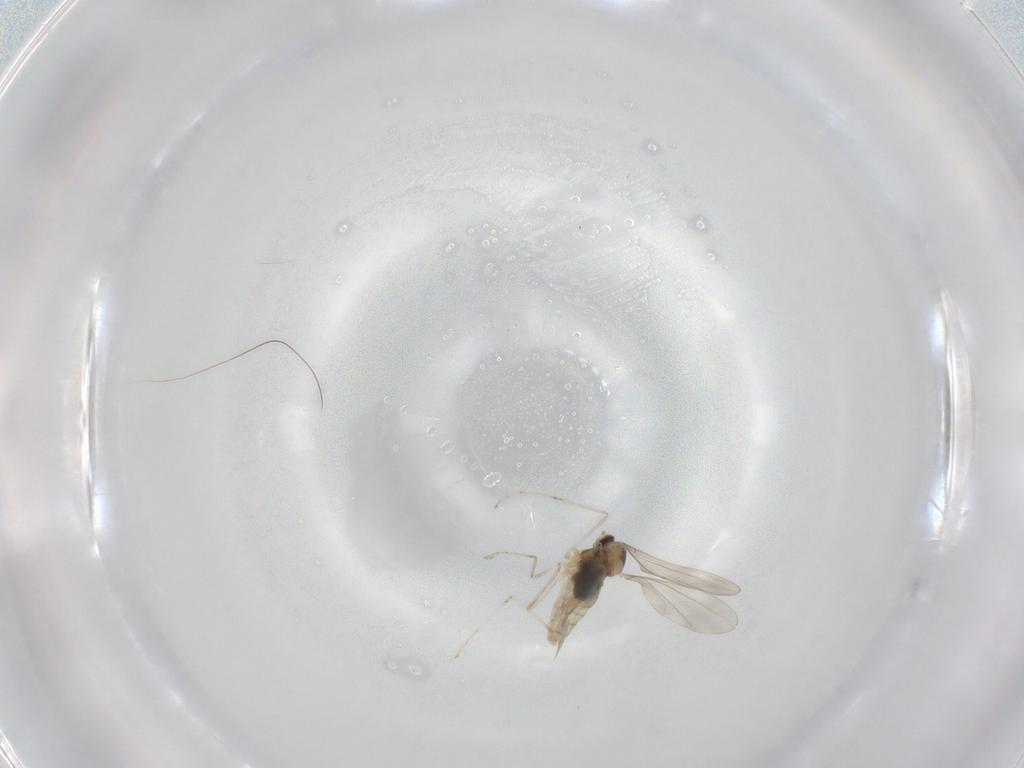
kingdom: Animalia
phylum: Arthropoda
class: Insecta
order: Diptera
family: Cecidomyiidae
